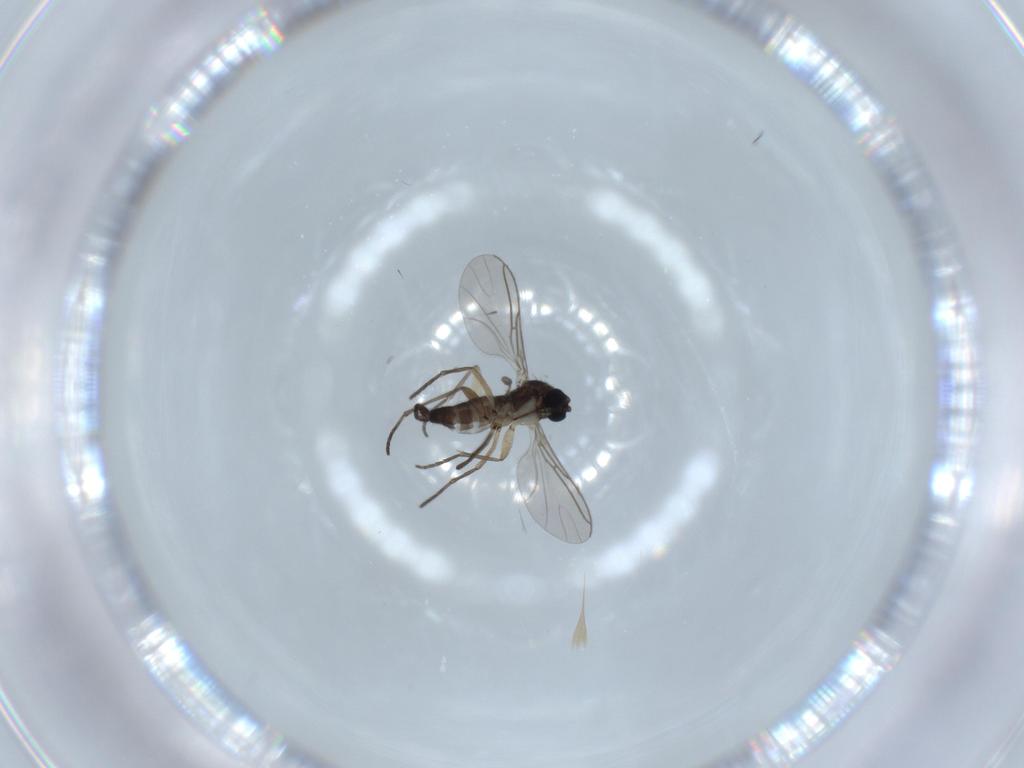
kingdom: Animalia
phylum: Arthropoda
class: Insecta
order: Diptera
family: Sciaridae
